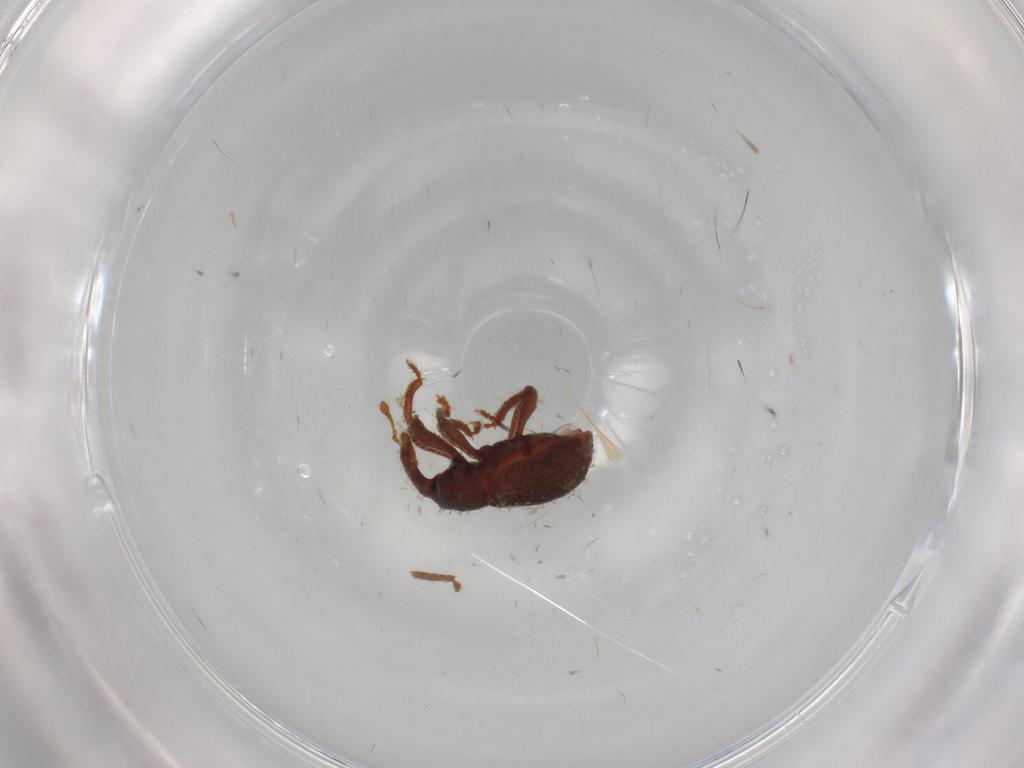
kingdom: Animalia
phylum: Arthropoda
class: Insecta
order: Coleoptera
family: Curculionidae
